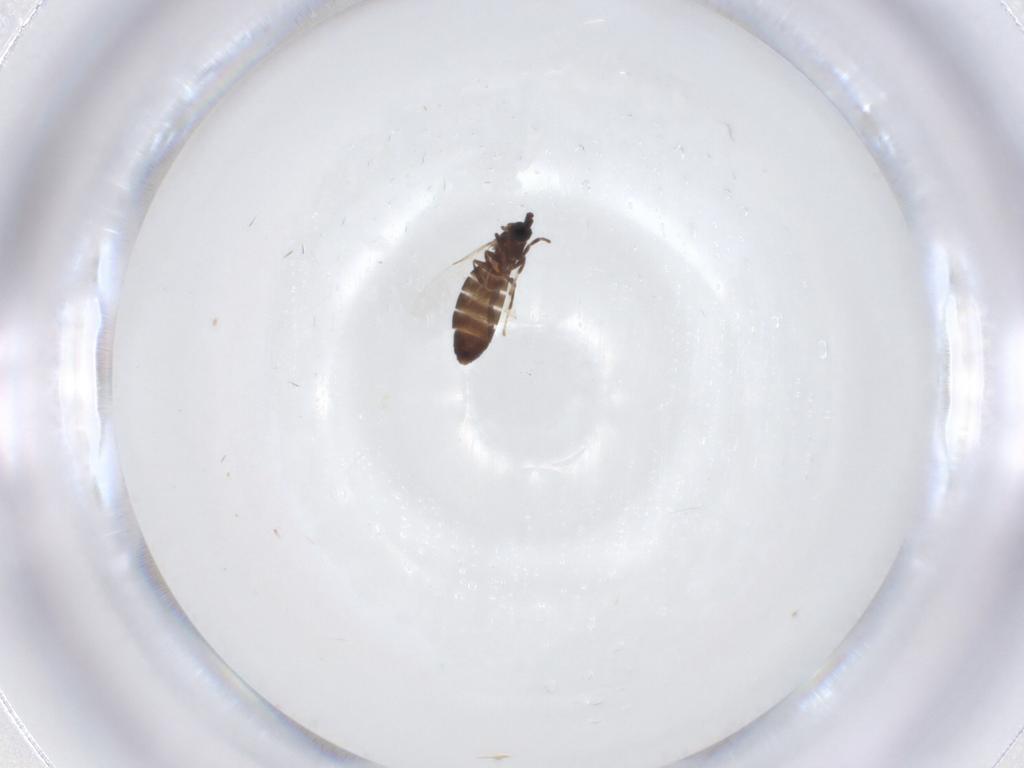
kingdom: Animalia
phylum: Arthropoda
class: Insecta
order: Diptera
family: Scatopsidae
